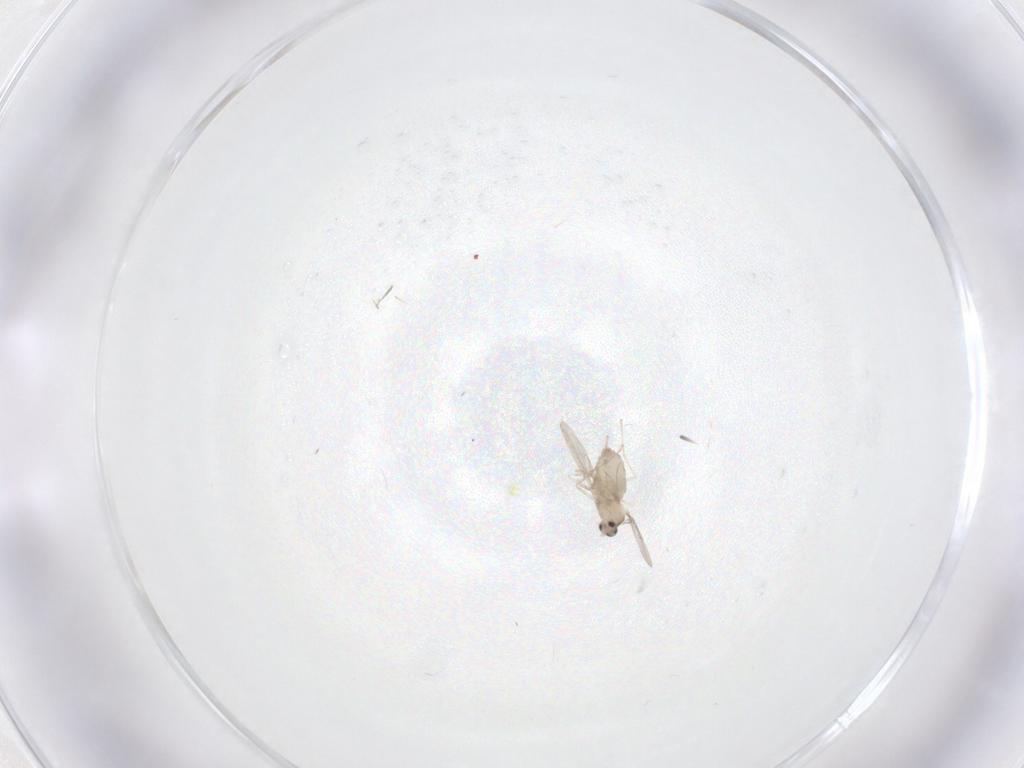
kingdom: Animalia
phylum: Arthropoda
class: Insecta
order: Diptera
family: Cecidomyiidae
